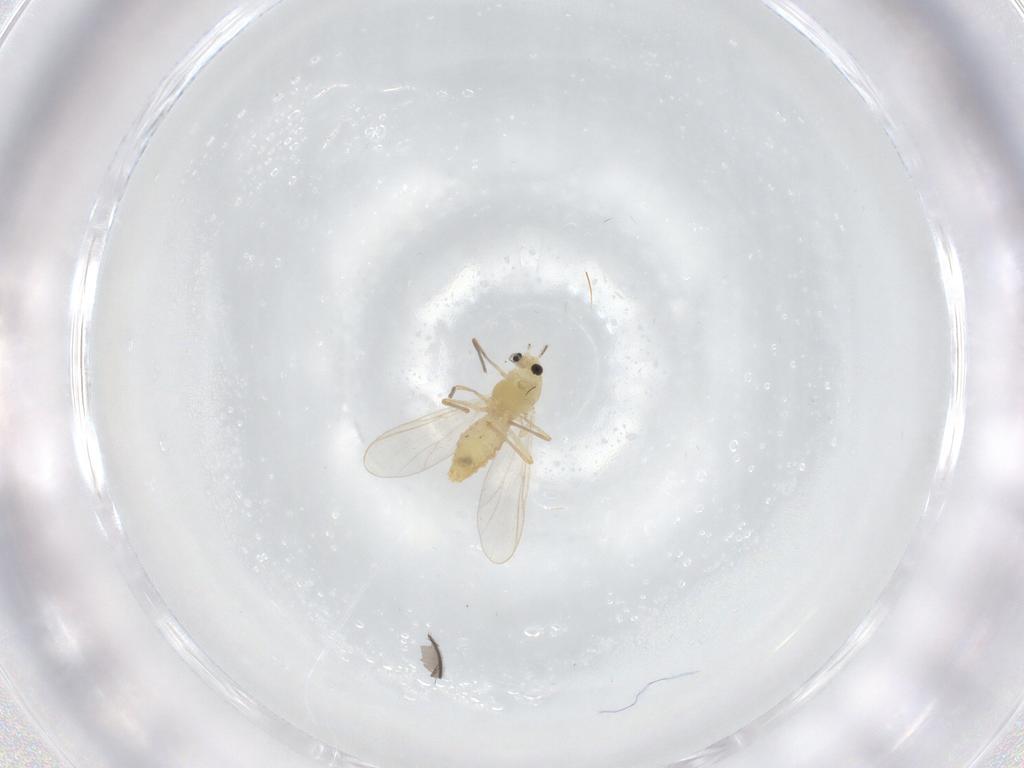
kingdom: Animalia
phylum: Arthropoda
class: Insecta
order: Diptera
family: Chironomidae
